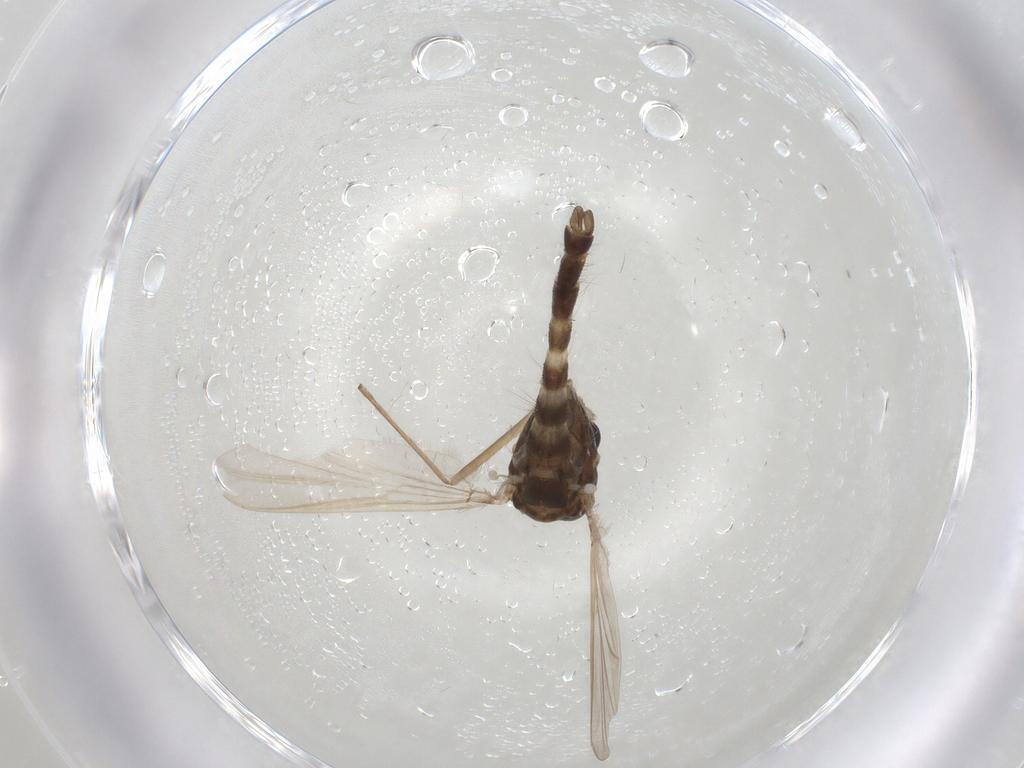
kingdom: Animalia
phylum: Arthropoda
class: Insecta
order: Diptera
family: Chironomidae
